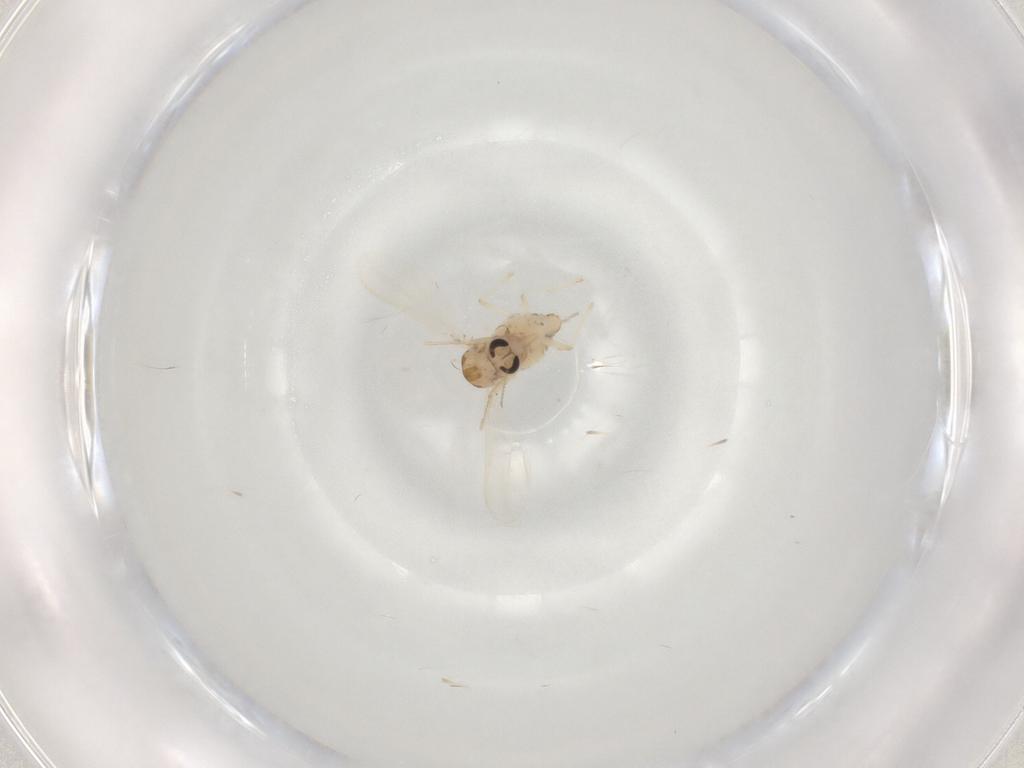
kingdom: Animalia
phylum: Arthropoda
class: Insecta
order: Diptera
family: Chironomidae
